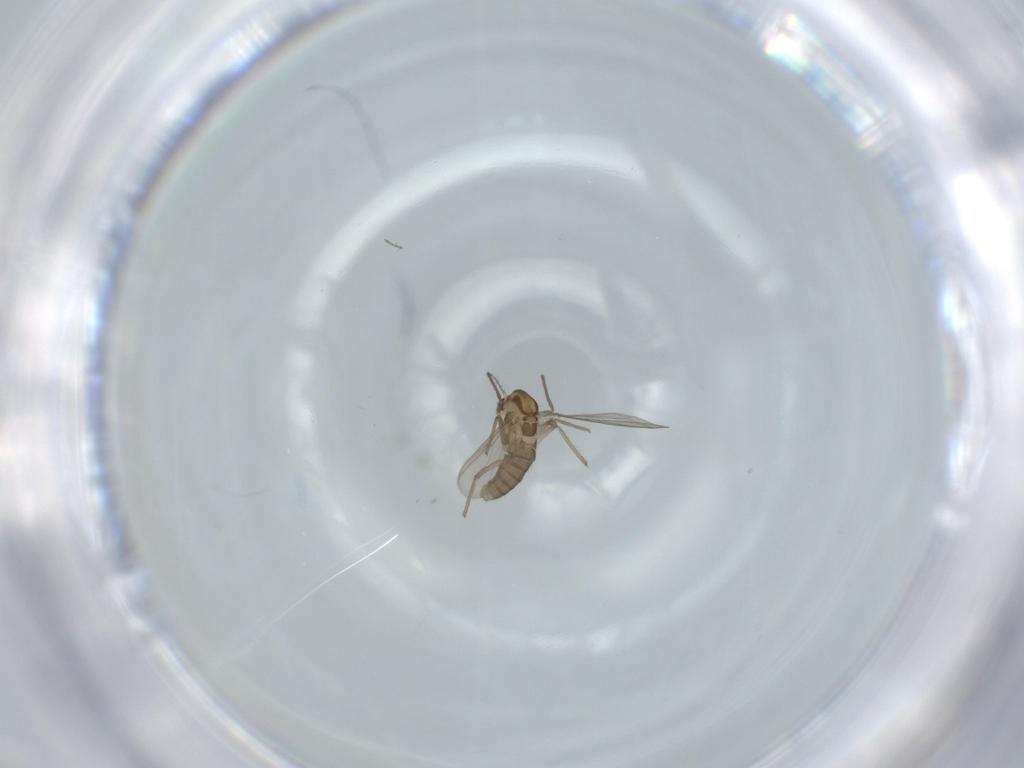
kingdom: Animalia
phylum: Arthropoda
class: Insecta
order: Diptera
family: Chironomidae
